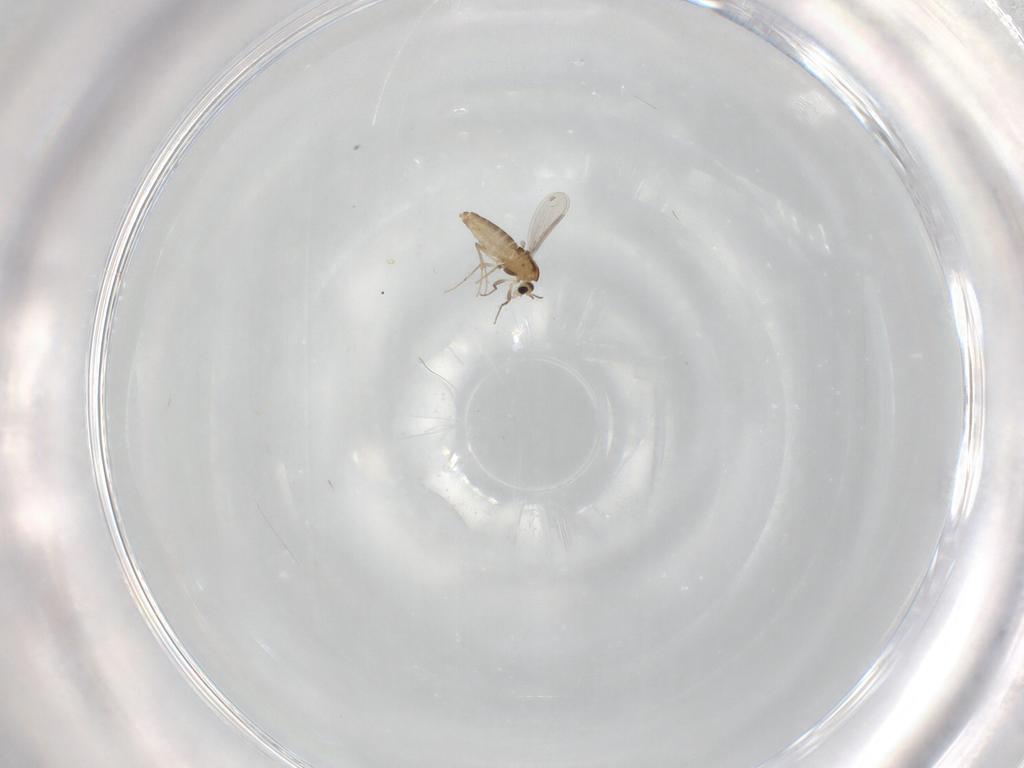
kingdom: Animalia
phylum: Arthropoda
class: Insecta
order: Diptera
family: Chironomidae
